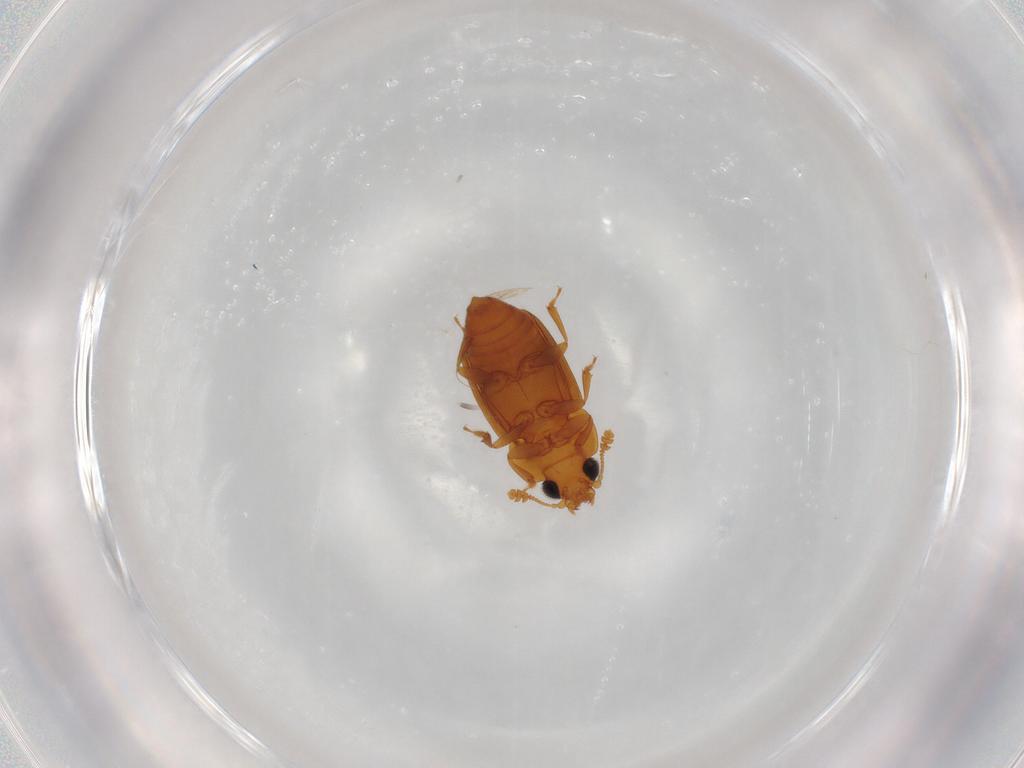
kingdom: Animalia
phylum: Arthropoda
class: Insecta
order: Coleoptera
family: Nitidulidae
